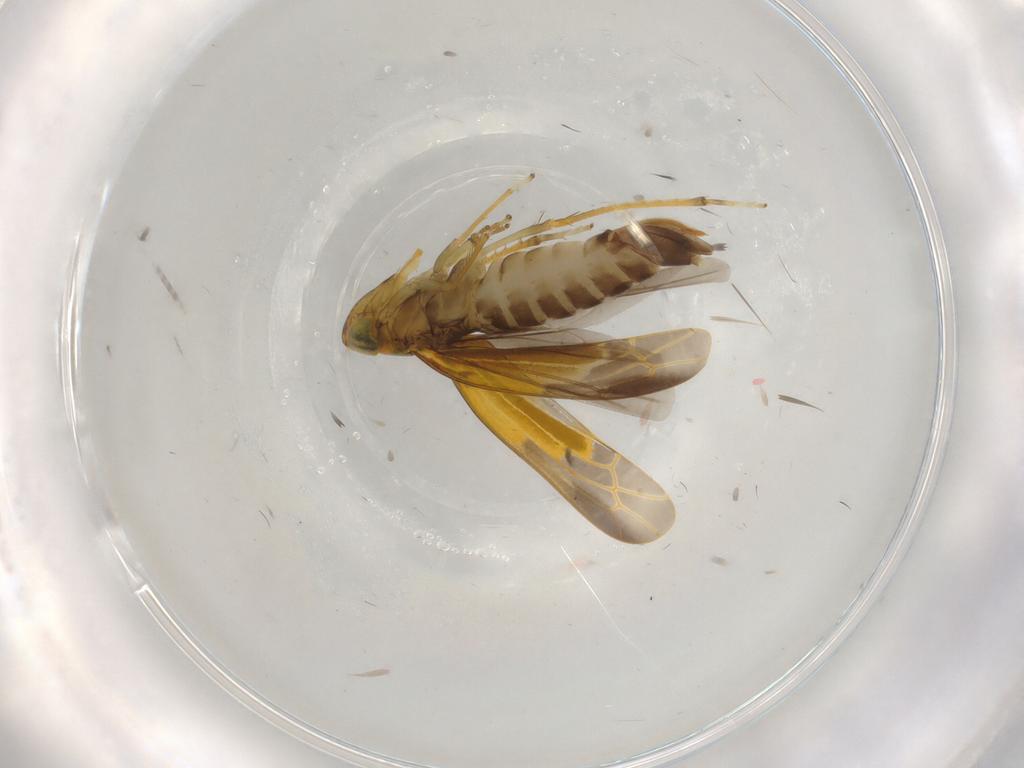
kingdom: Animalia
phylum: Arthropoda
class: Insecta
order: Hemiptera
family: Cicadellidae
